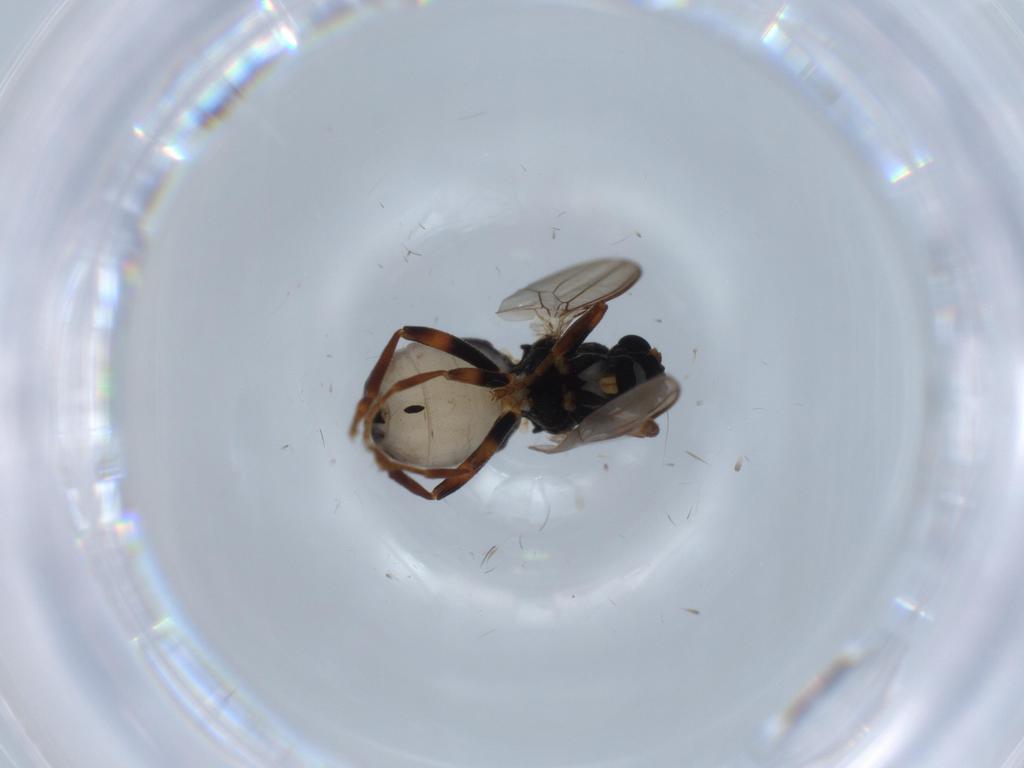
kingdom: Animalia
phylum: Arthropoda
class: Insecta
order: Diptera
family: Sphaeroceridae
